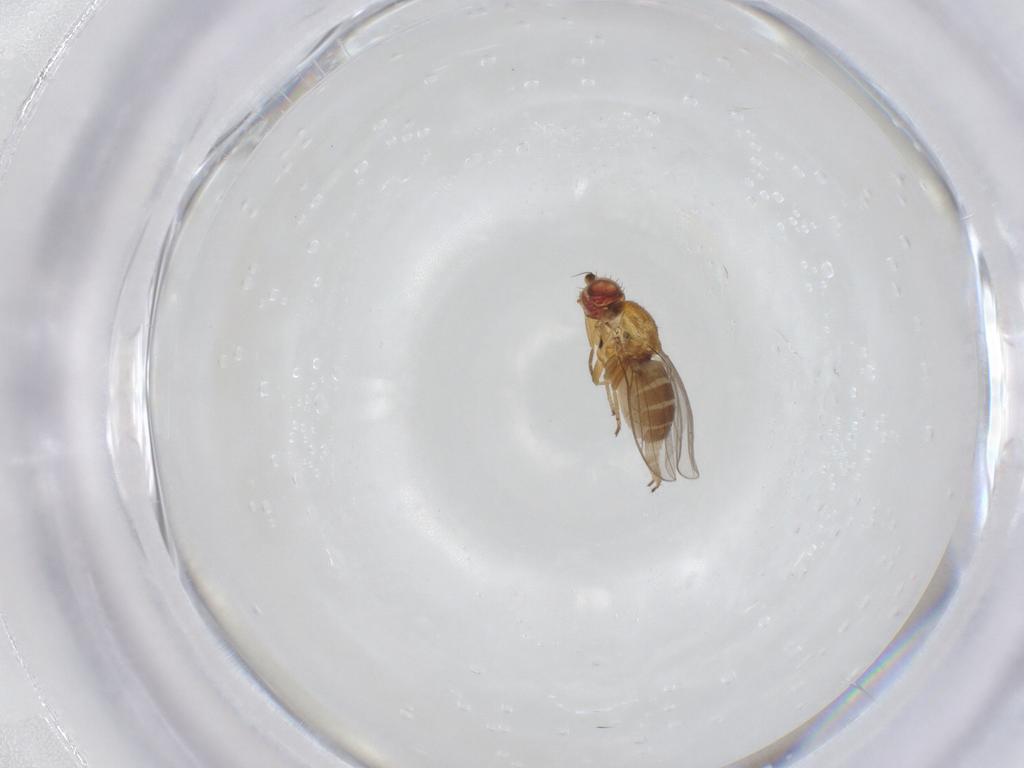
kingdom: Animalia
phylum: Arthropoda
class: Insecta
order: Diptera
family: Chloropidae
